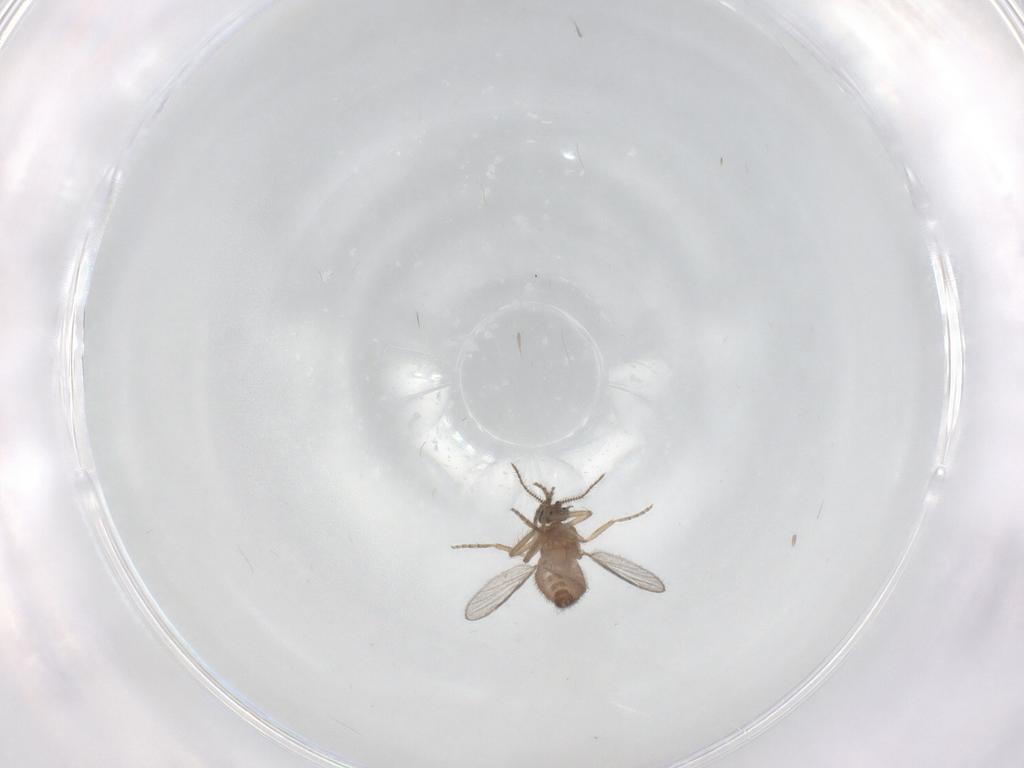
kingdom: Animalia
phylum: Arthropoda
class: Insecta
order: Diptera
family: Ceratopogonidae
